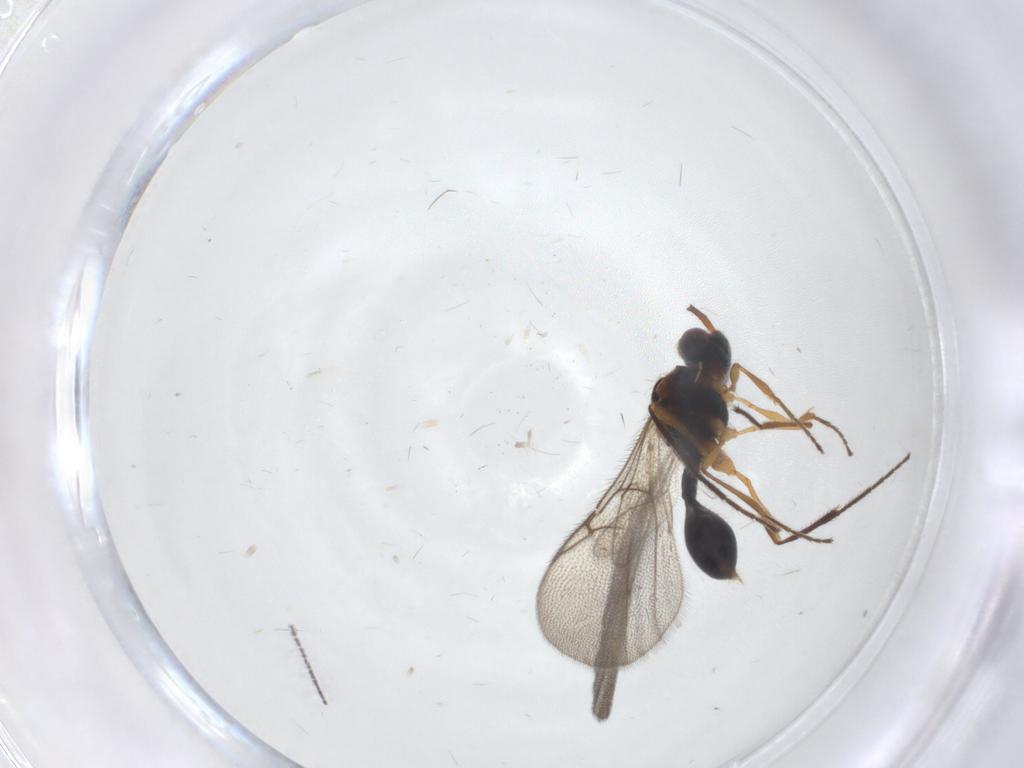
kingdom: Animalia
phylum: Arthropoda
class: Insecta
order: Hymenoptera
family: Diapriidae
